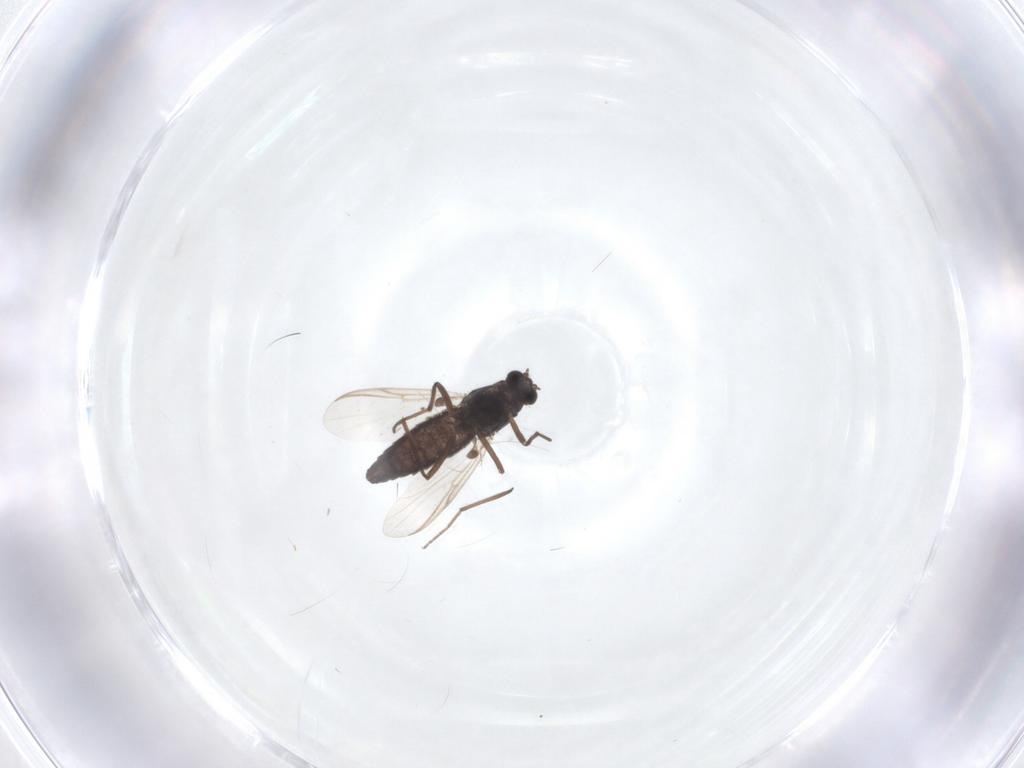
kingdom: Animalia
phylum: Arthropoda
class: Insecta
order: Diptera
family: Chironomidae
